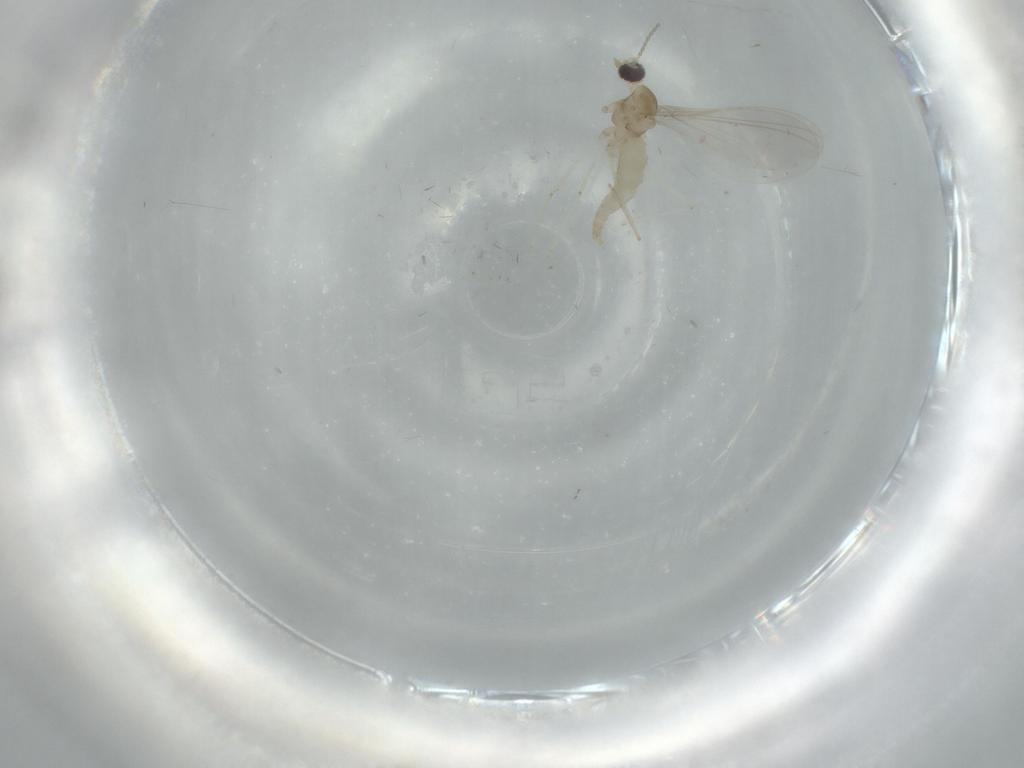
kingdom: Animalia
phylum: Arthropoda
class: Insecta
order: Diptera
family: Cecidomyiidae
